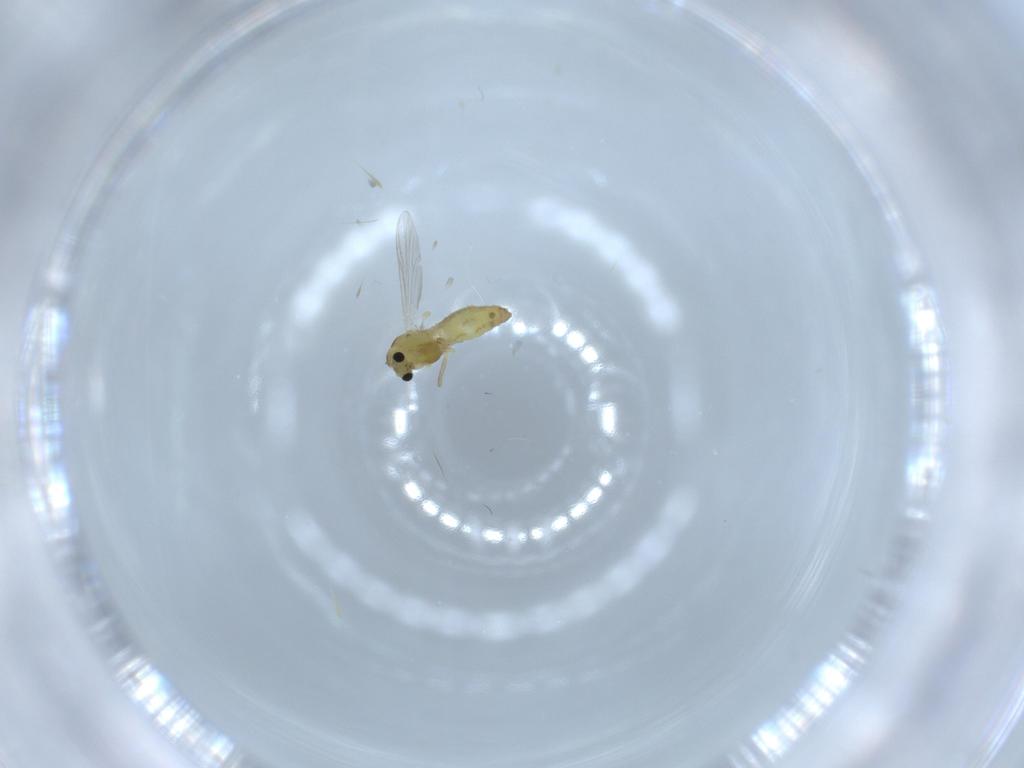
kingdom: Animalia
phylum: Arthropoda
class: Insecta
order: Diptera
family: Chironomidae
